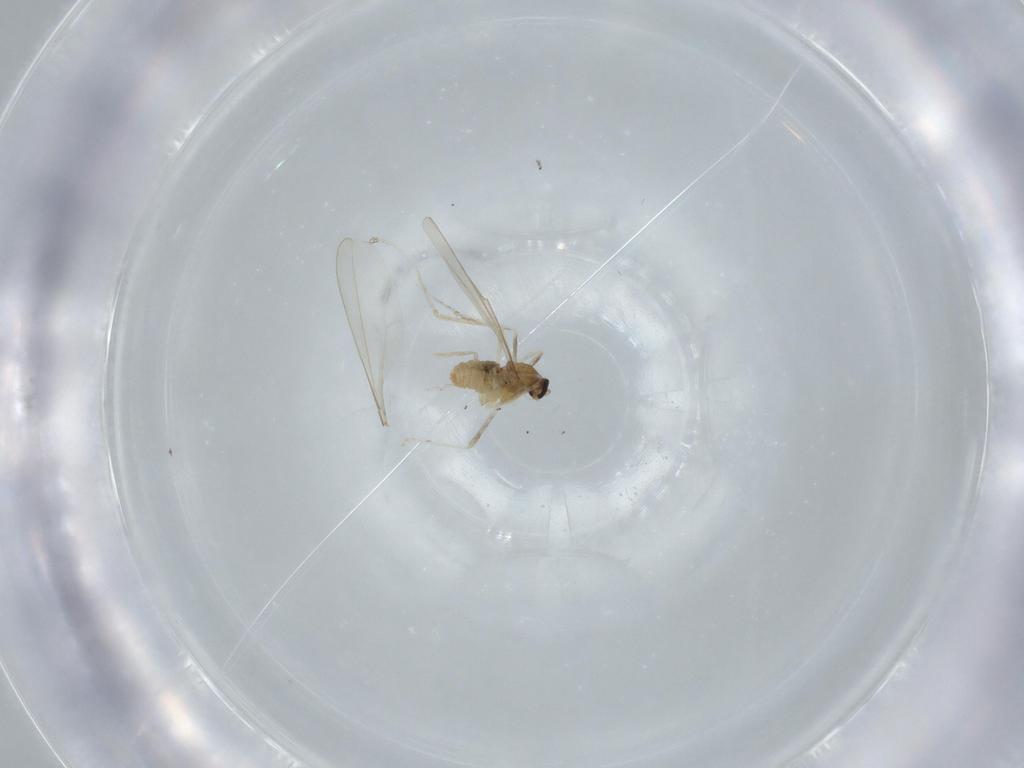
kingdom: Animalia
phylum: Arthropoda
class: Insecta
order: Diptera
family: Cecidomyiidae
